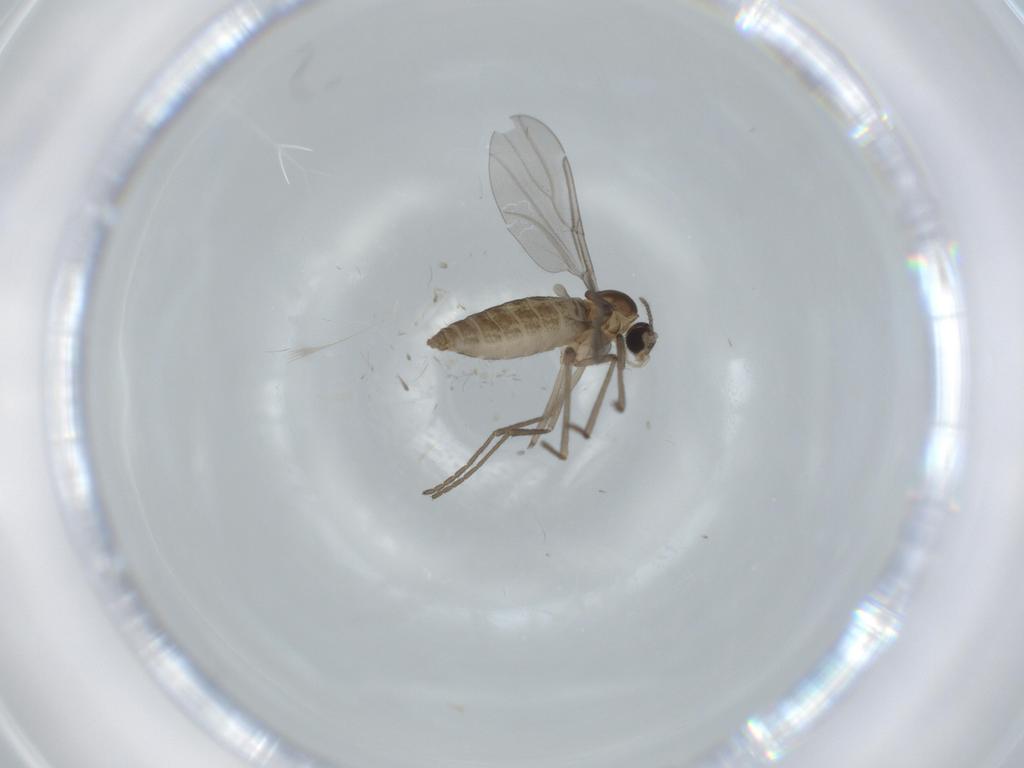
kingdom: Animalia
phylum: Arthropoda
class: Insecta
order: Diptera
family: Cecidomyiidae
